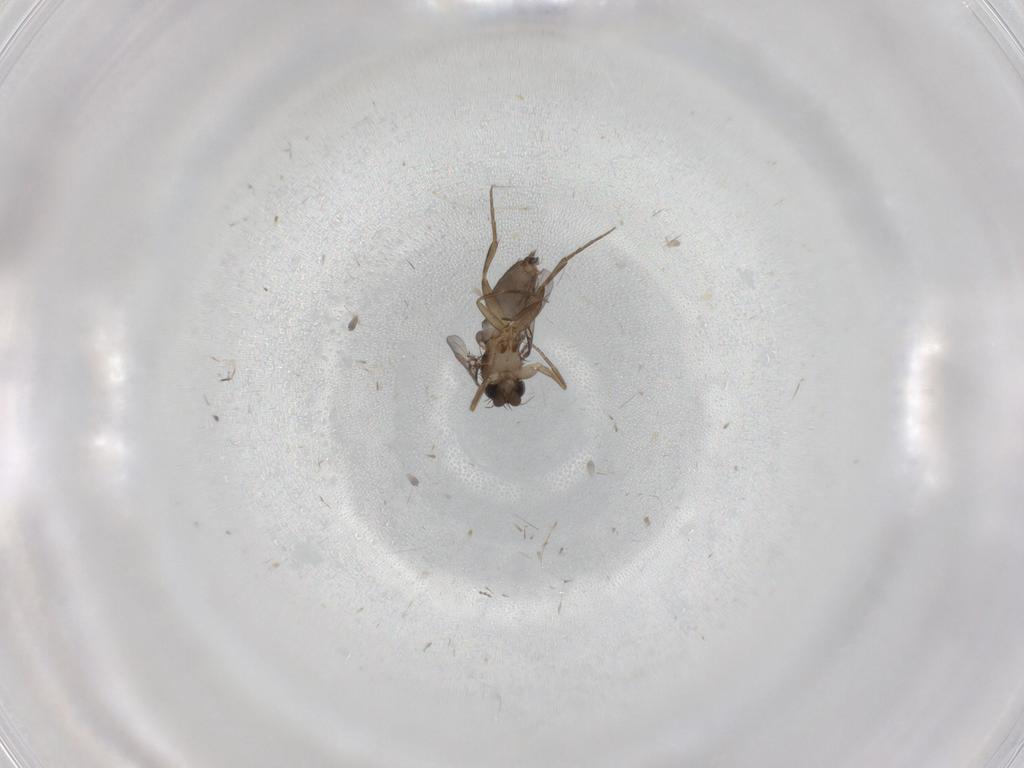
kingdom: Animalia
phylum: Arthropoda
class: Insecta
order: Diptera
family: Phoridae
